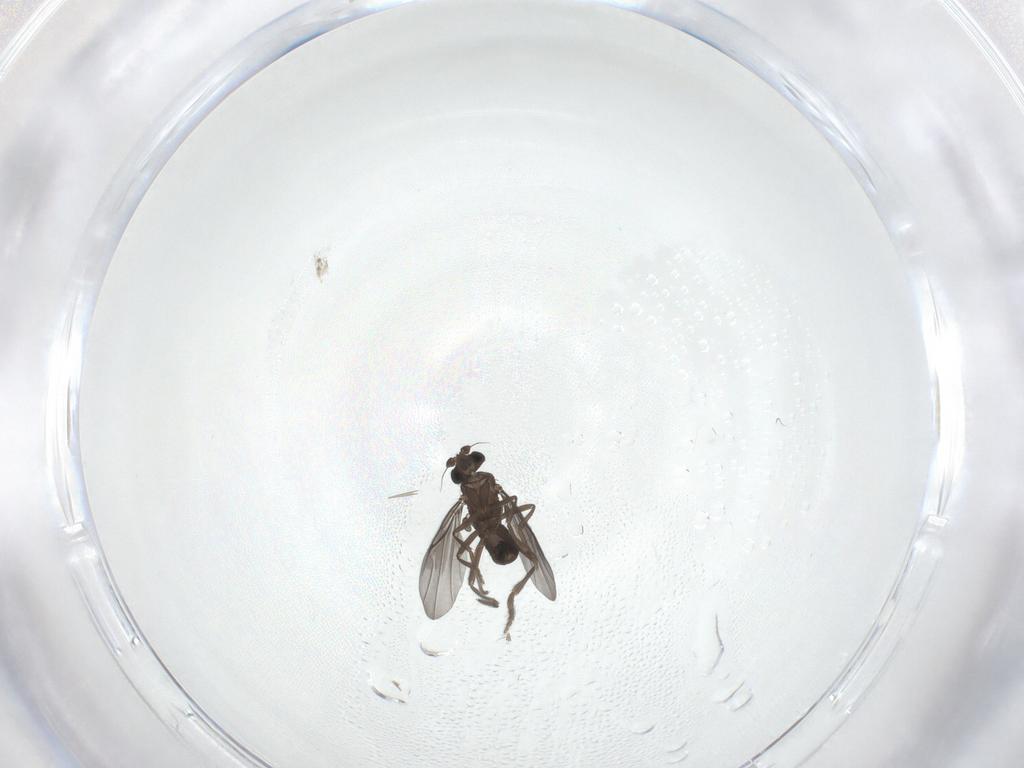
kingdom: Animalia
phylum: Arthropoda
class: Insecta
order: Diptera
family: Phoridae
